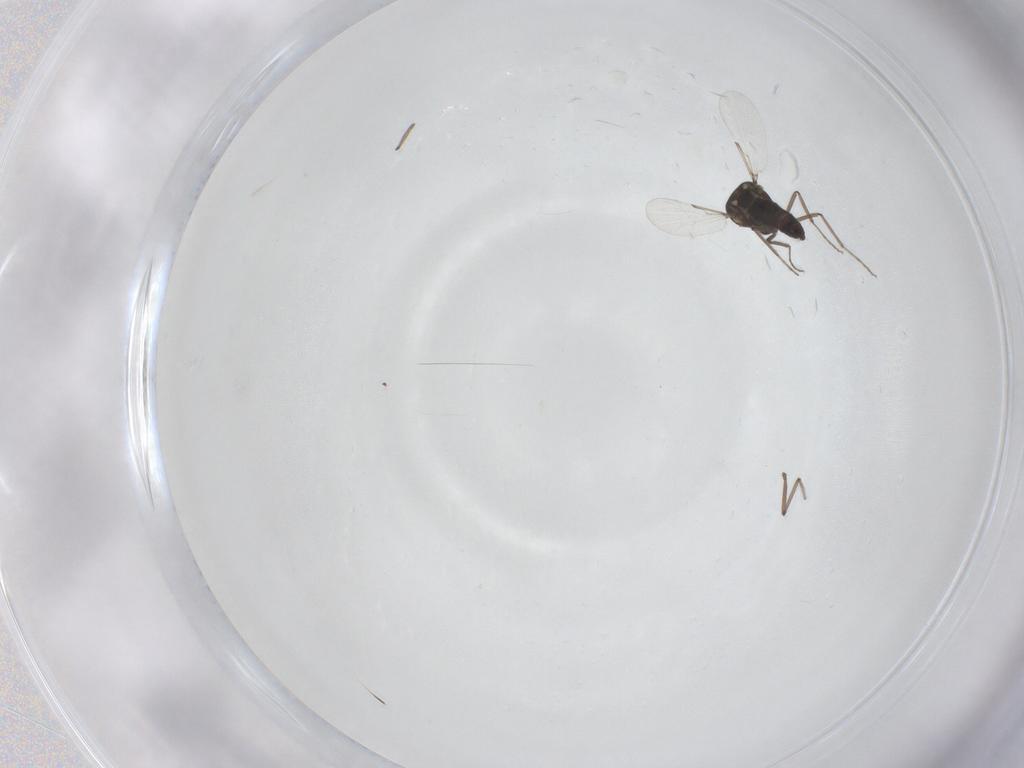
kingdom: Animalia
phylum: Arthropoda
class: Insecta
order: Diptera
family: Ceratopogonidae
